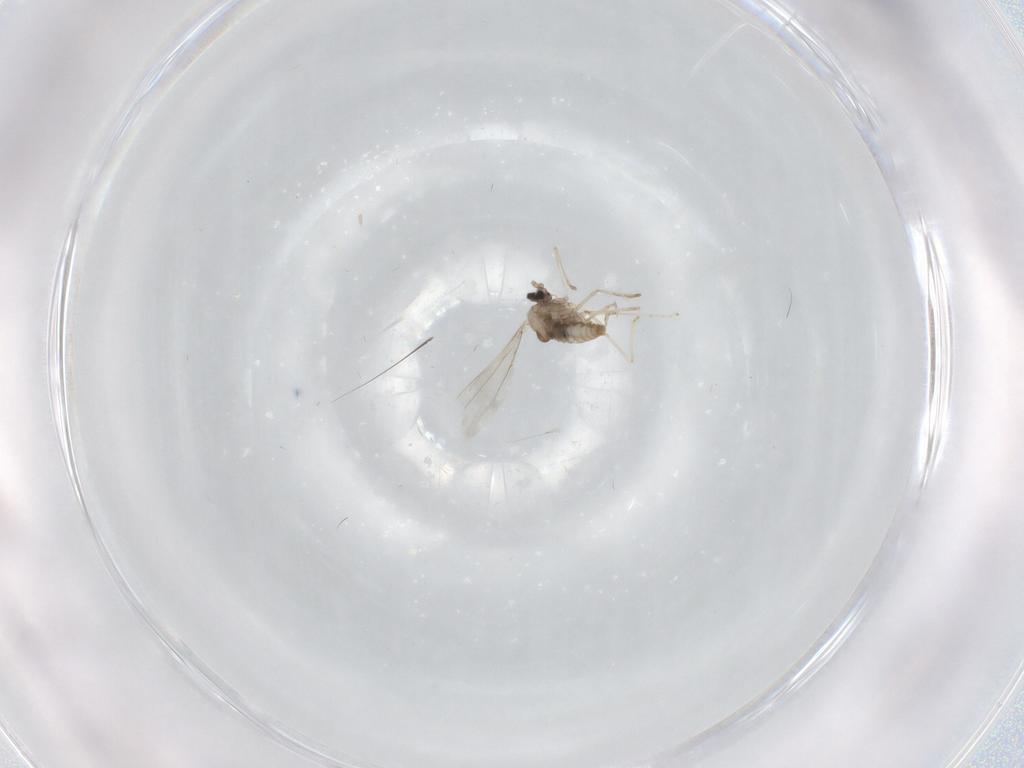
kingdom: Animalia
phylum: Arthropoda
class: Insecta
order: Diptera
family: Cecidomyiidae
